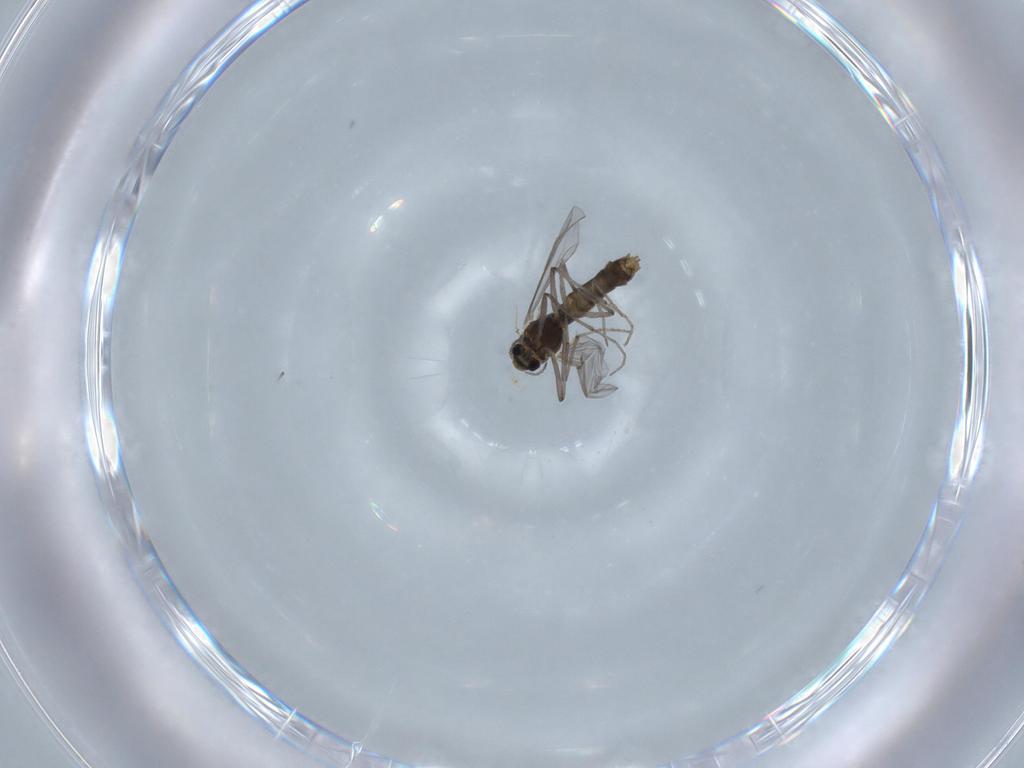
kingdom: Animalia
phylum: Arthropoda
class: Insecta
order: Diptera
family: Chironomidae
